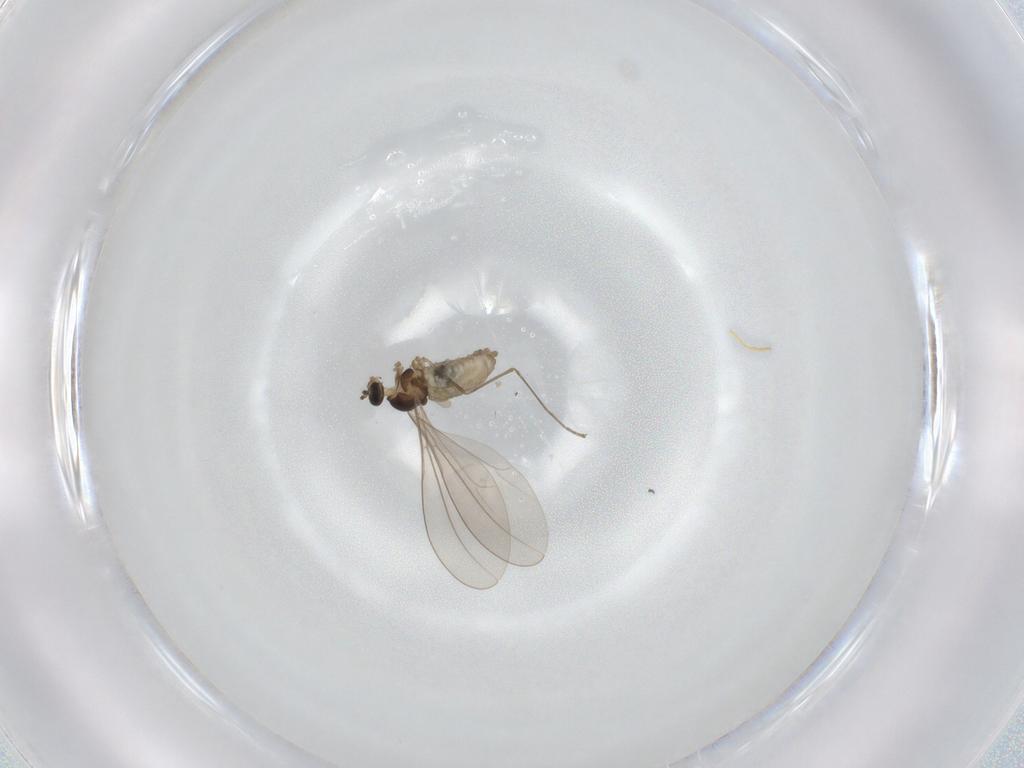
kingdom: Animalia
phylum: Arthropoda
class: Insecta
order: Diptera
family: Cecidomyiidae
